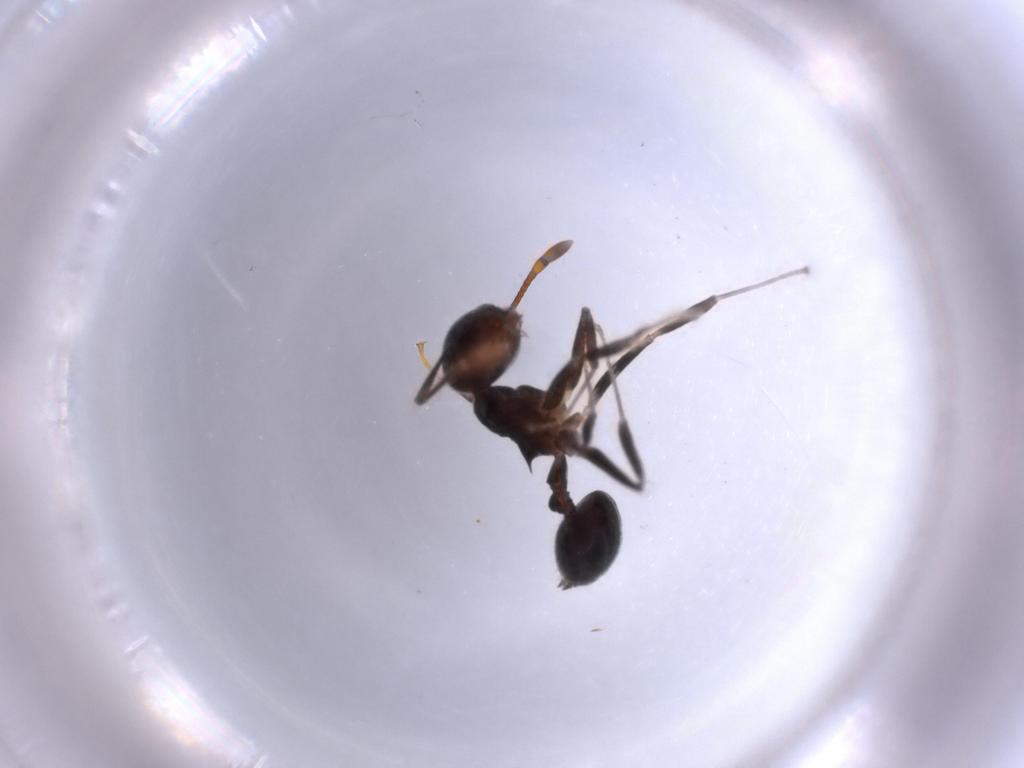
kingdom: Animalia
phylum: Arthropoda
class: Insecta
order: Hymenoptera
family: Formicidae
